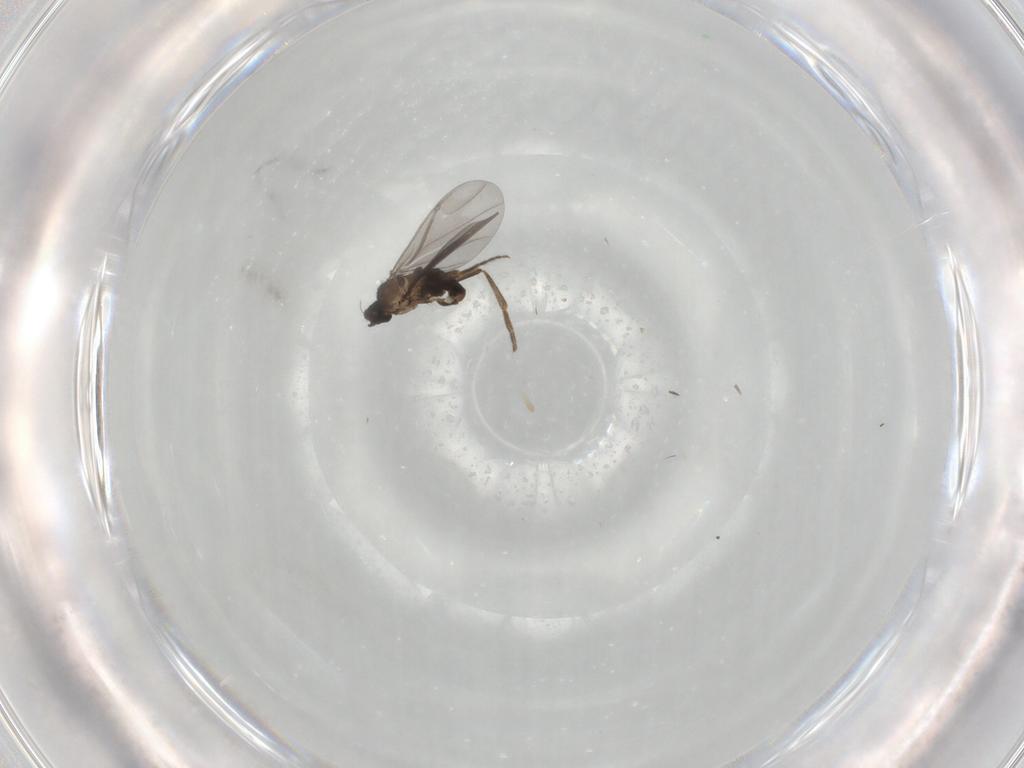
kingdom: Animalia
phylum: Arthropoda
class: Insecta
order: Diptera
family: Phoridae
